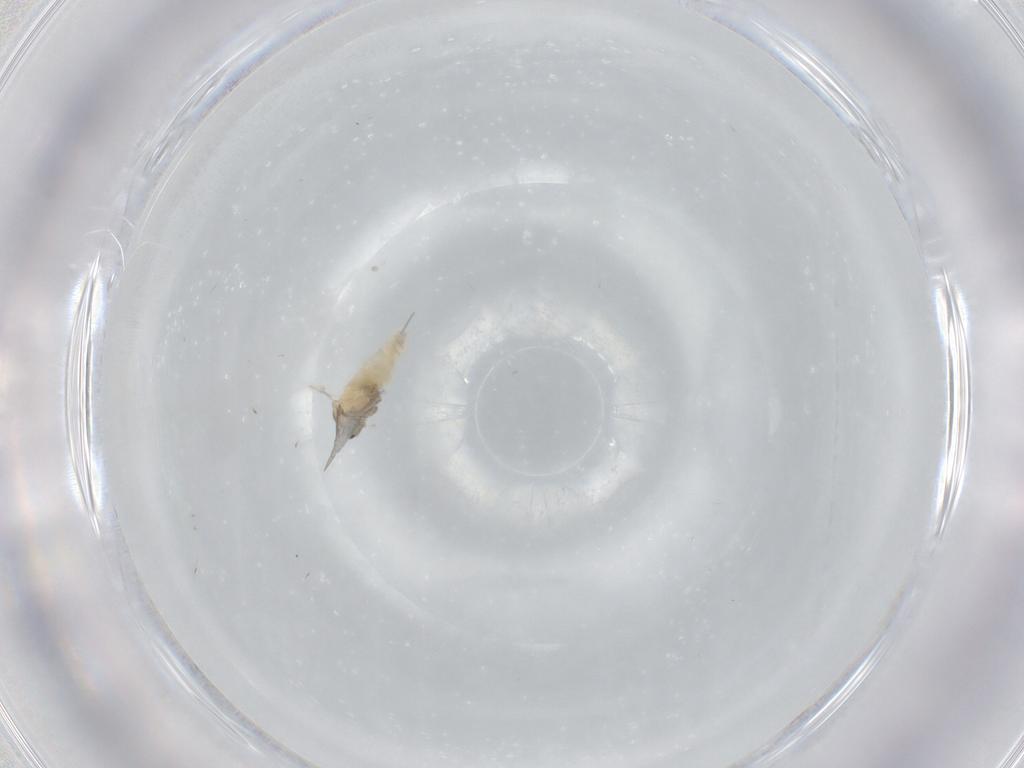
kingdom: Animalia
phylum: Arthropoda
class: Insecta
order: Diptera
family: Cecidomyiidae
